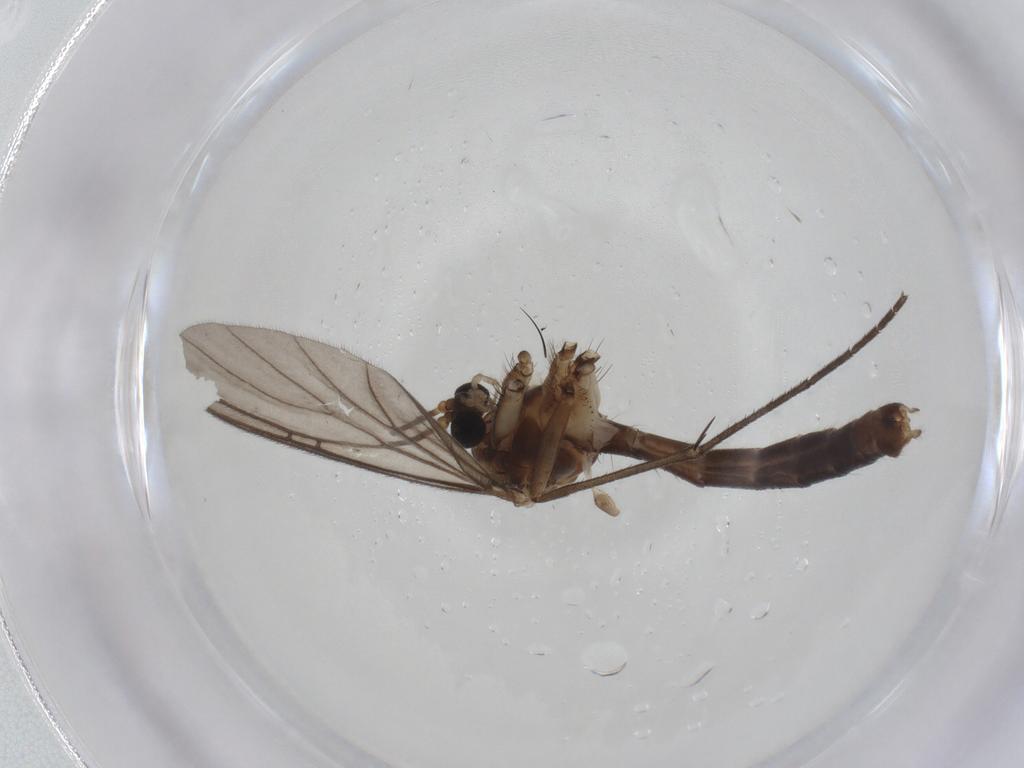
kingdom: Animalia
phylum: Arthropoda
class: Insecta
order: Diptera
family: Mycetophilidae
